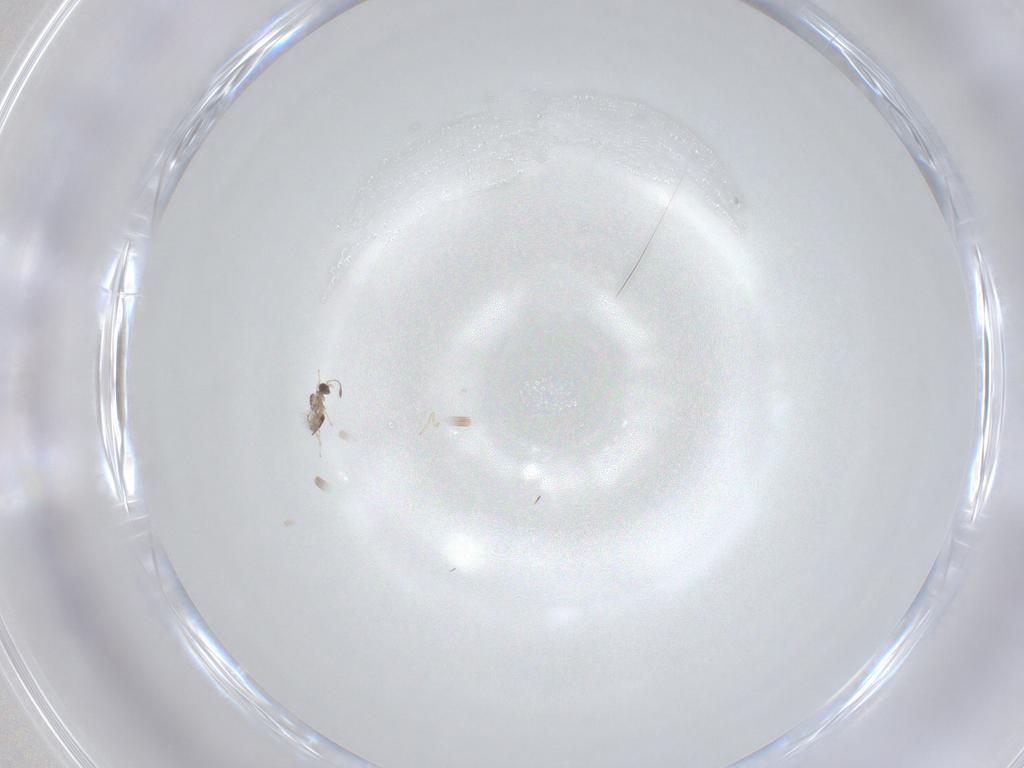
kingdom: Animalia
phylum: Arthropoda
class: Insecta
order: Hemiptera
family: Cicadellidae
